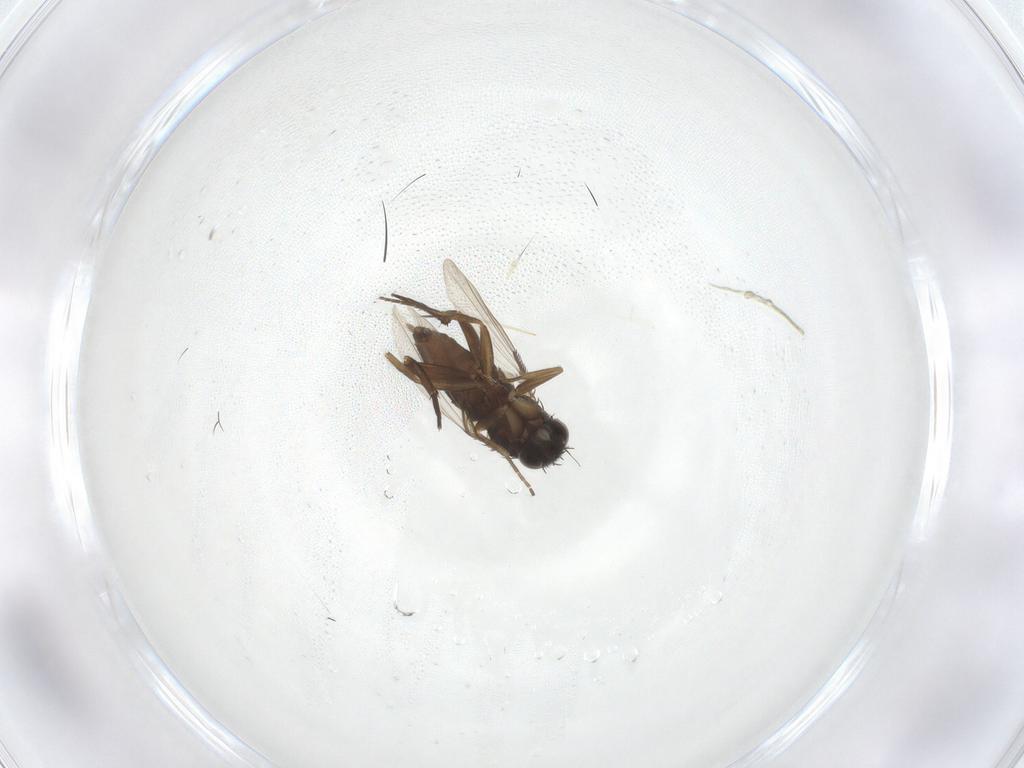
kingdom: Animalia
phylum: Arthropoda
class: Insecta
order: Diptera
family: Phoridae
